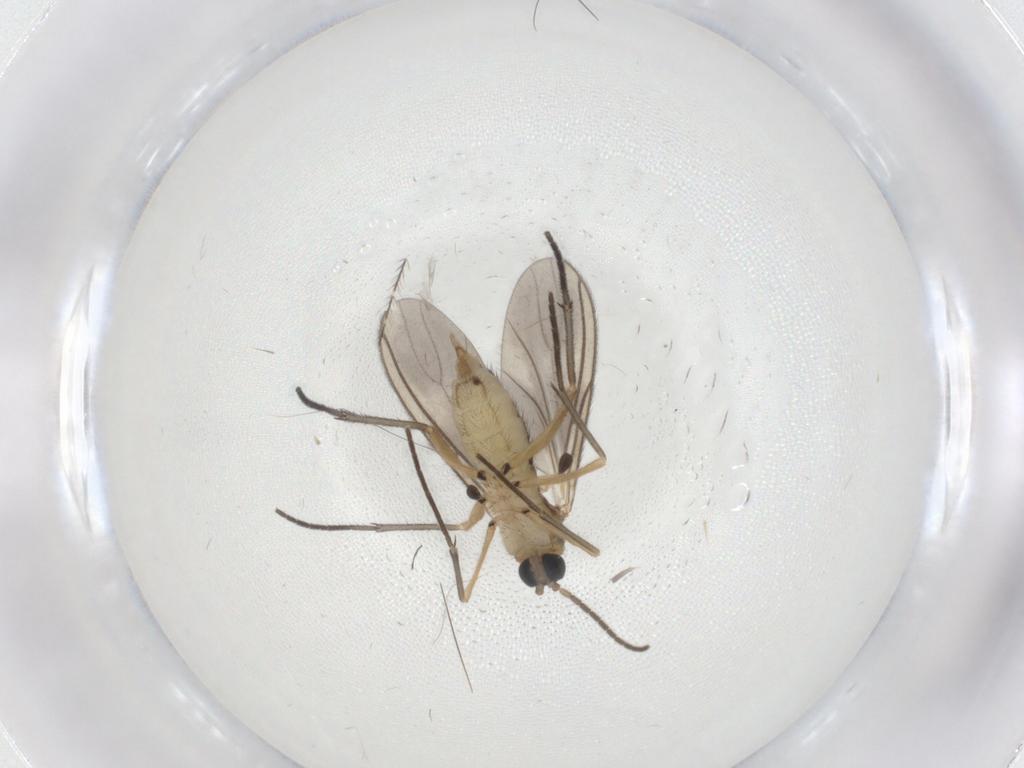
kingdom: Animalia
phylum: Arthropoda
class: Insecta
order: Diptera
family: Sciaridae
